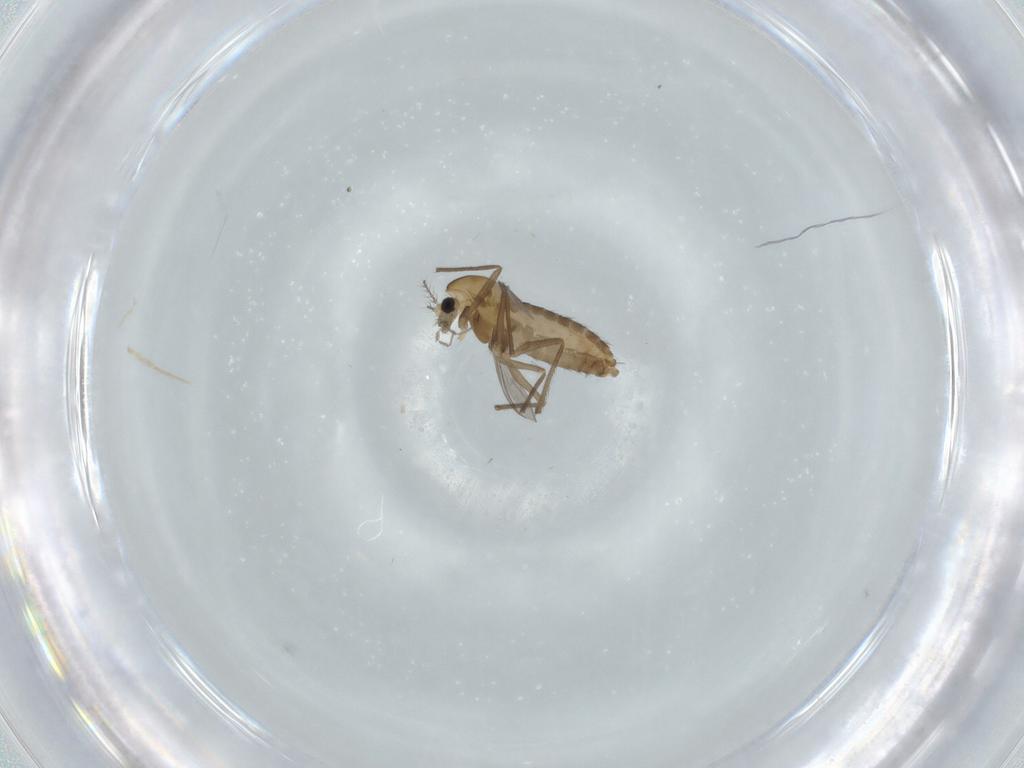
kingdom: Animalia
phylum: Arthropoda
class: Insecta
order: Diptera
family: Chironomidae
